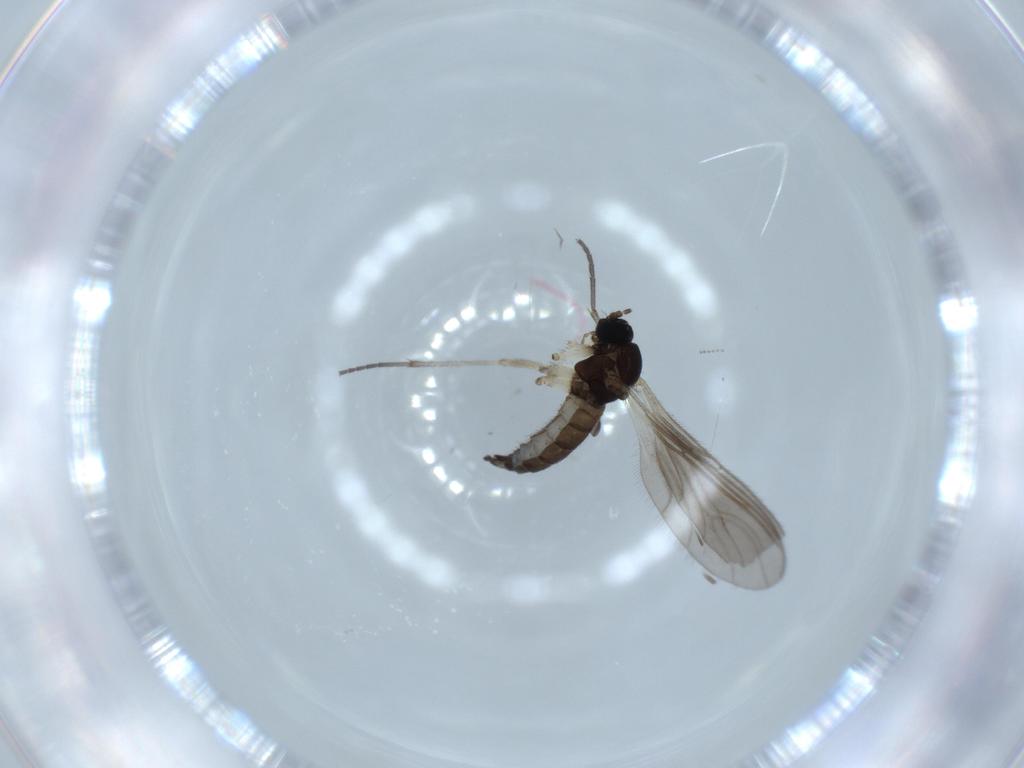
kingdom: Animalia
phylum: Arthropoda
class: Insecta
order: Diptera
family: Sciaridae
